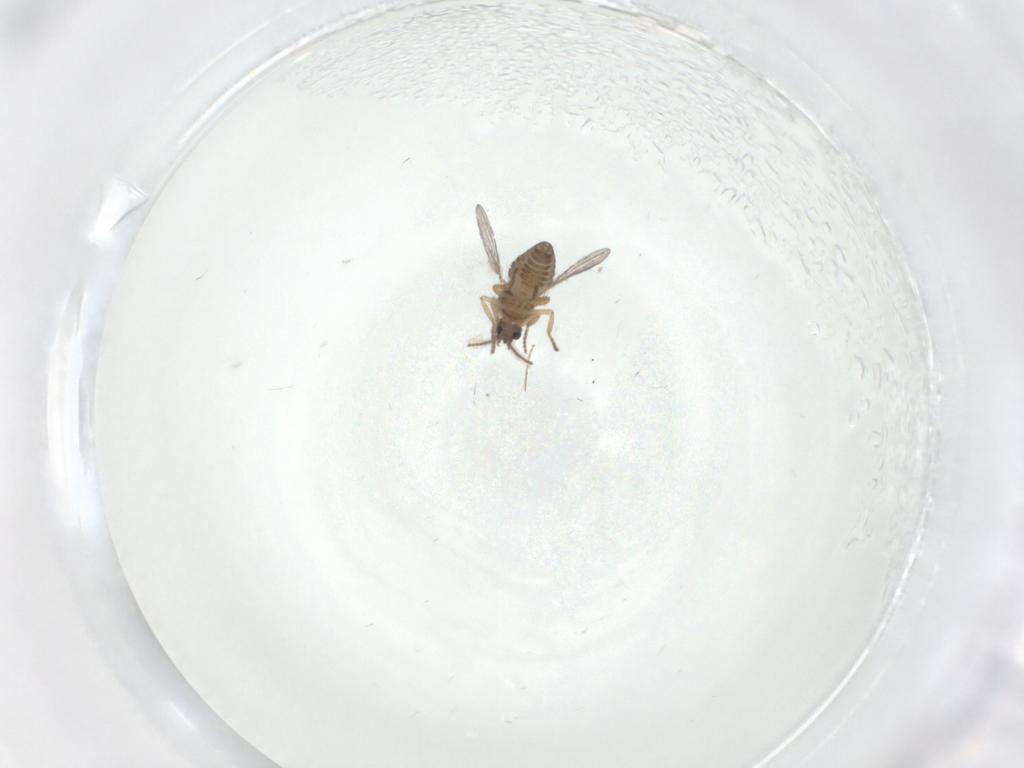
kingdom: Animalia
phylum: Arthropoda
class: Insecta
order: Diptera
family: Ceratopogonidae
